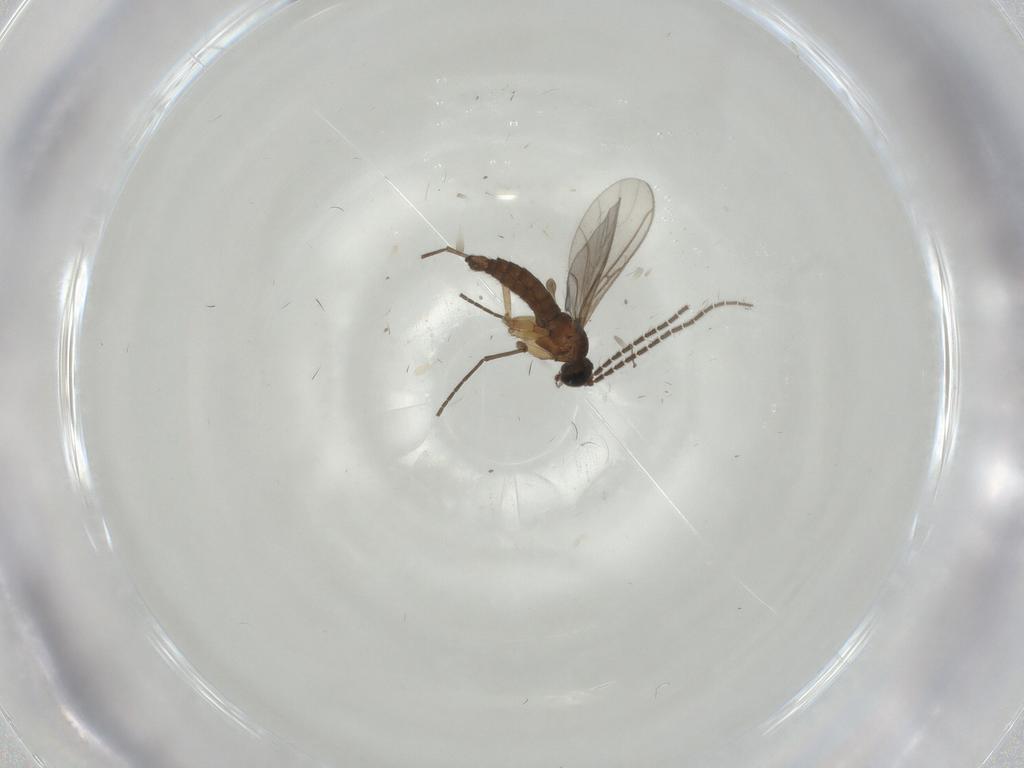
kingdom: Animalia
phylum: Arthropoda
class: Insecta
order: Diptera
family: Sciaridae
